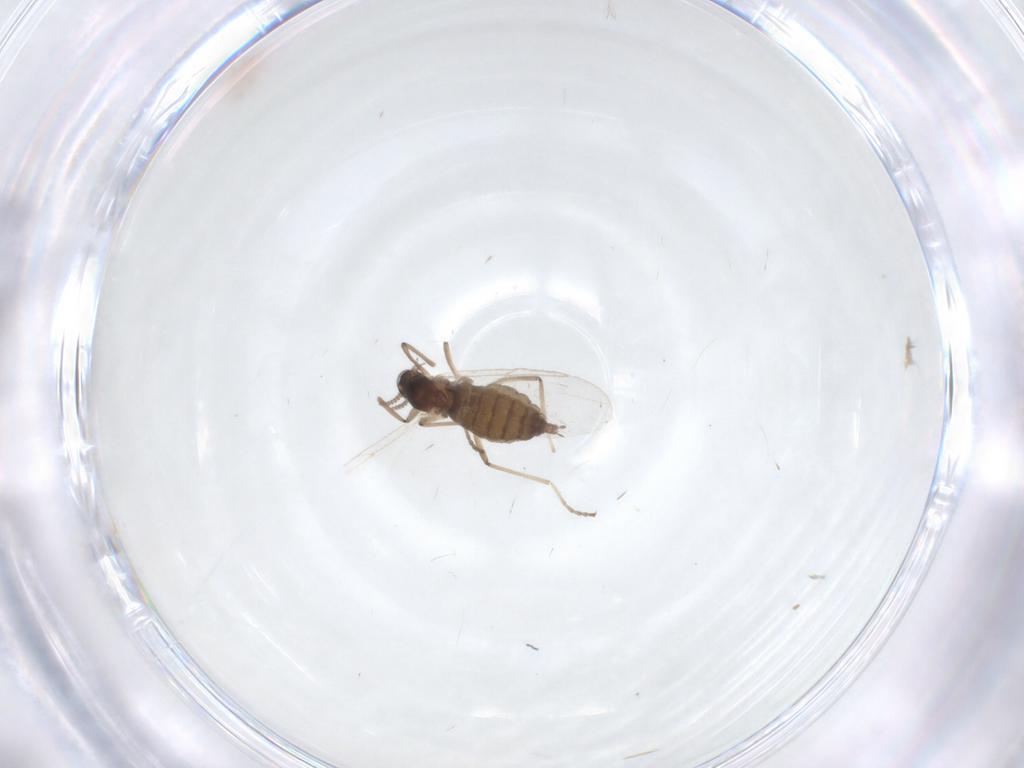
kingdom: Animalia
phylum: Arthropoda
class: Insecta
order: Diptera
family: Cecidomyiidae
